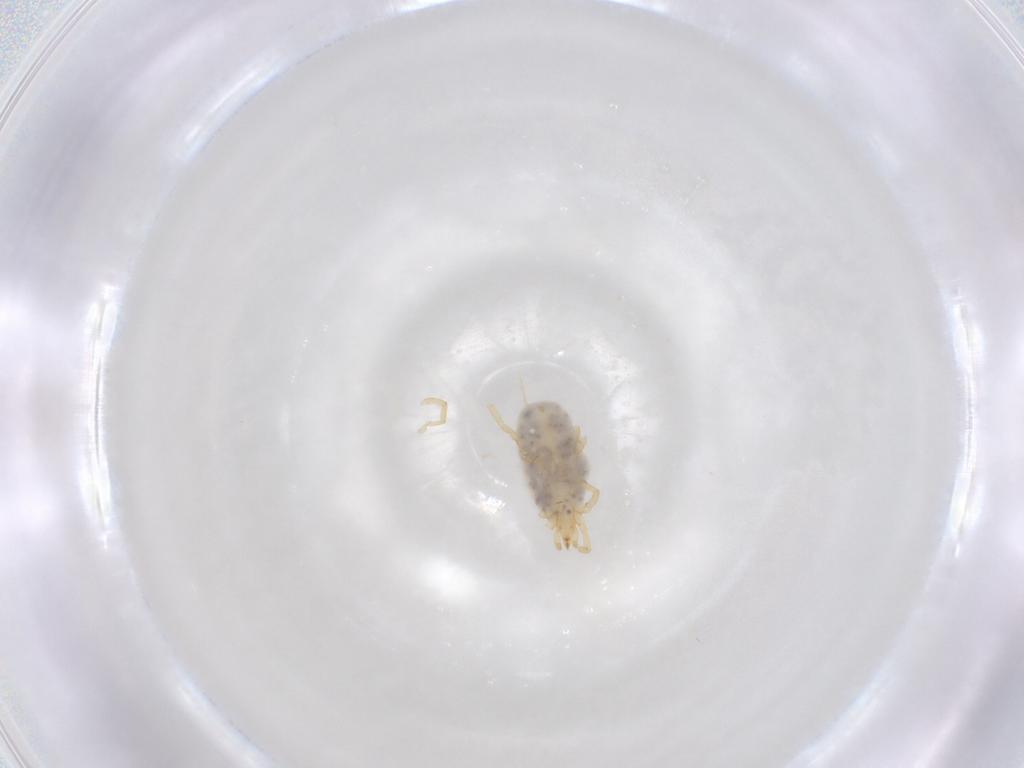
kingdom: Animalia
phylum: Arthropoda
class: Arachnida
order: Trombidiformes
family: Erythraeidae
